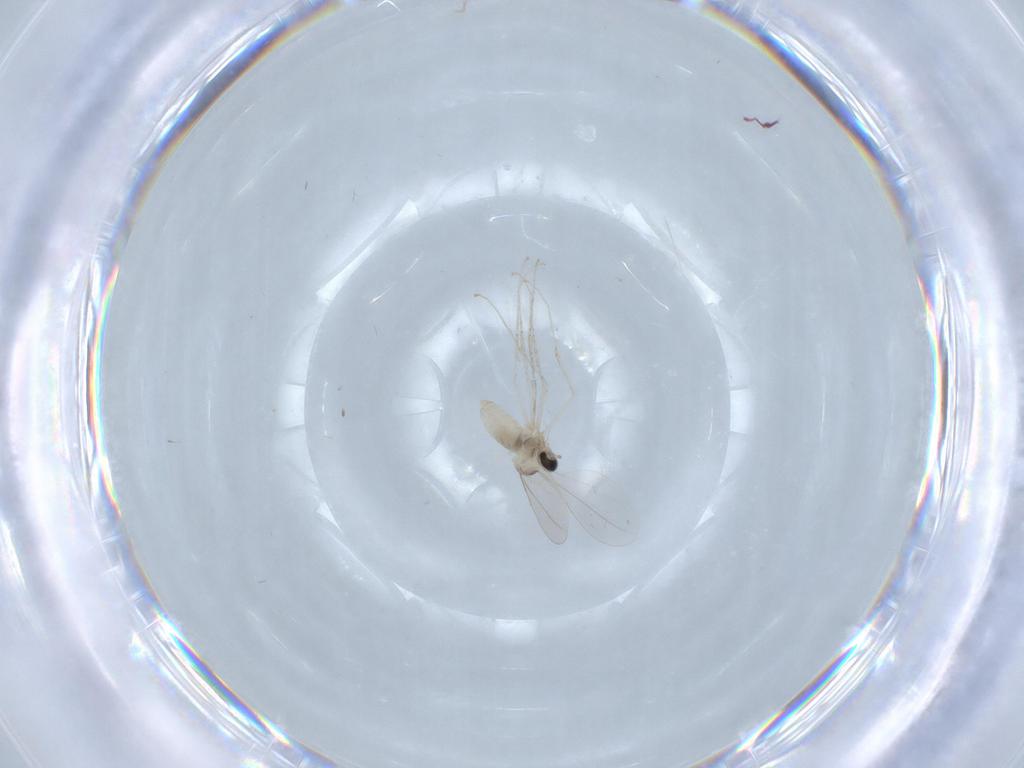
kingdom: Animalia
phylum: Arthropoda
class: Insecta
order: Diptera
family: Cecidomyiidae
